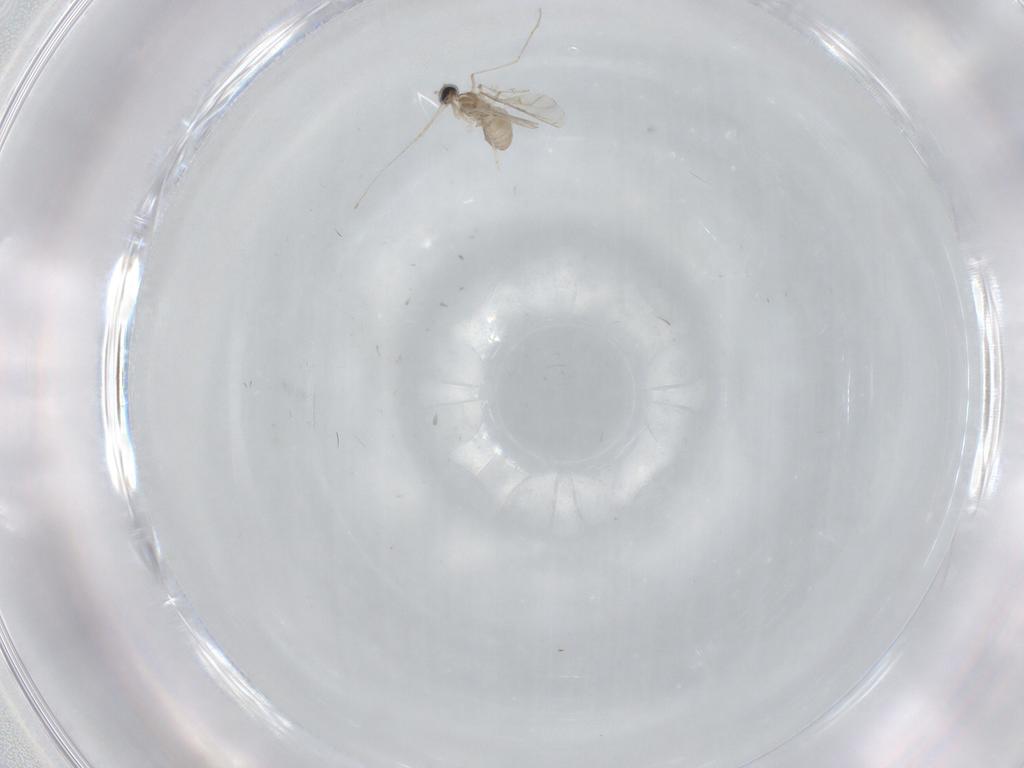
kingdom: Animalia
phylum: Arthropoda
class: Insecta
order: Diptera
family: Cecidomyiidae
